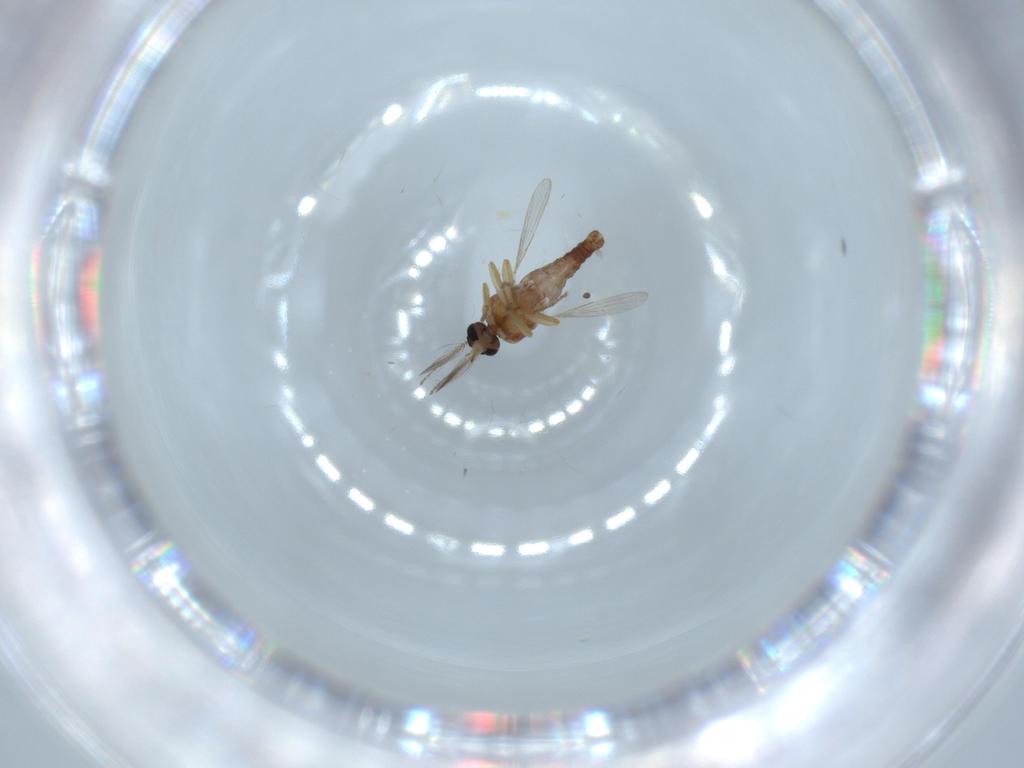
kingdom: Animalia
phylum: Arthropoda
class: Insecta
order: Diptera
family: Ceratopogonidae
